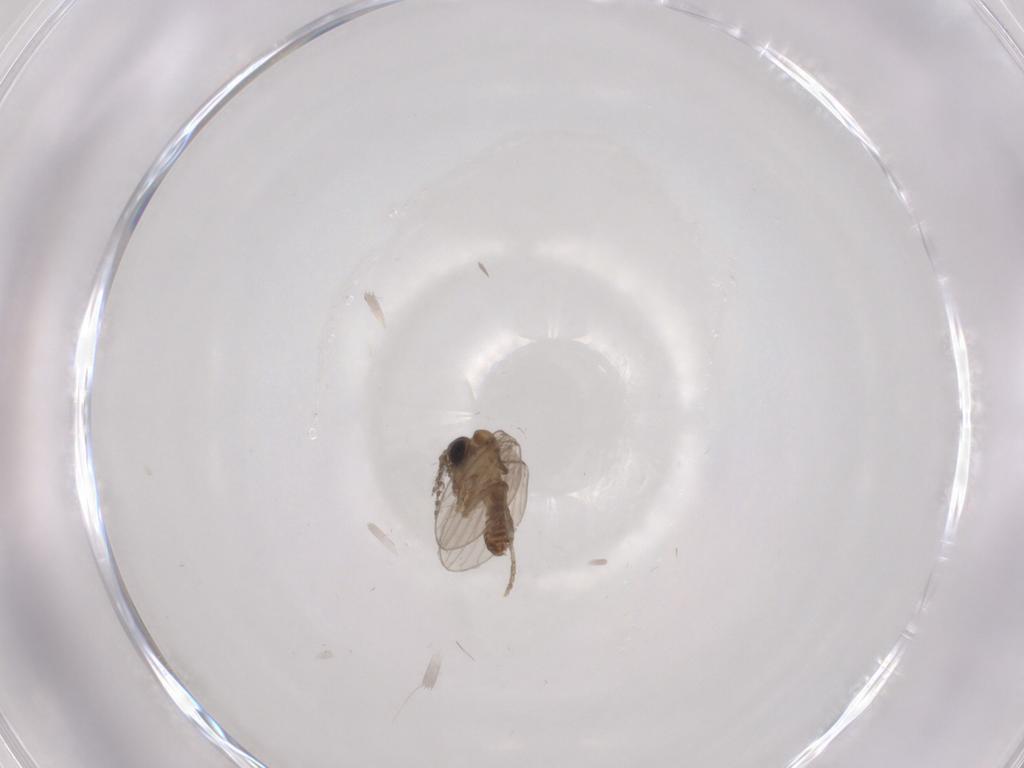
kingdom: Animalia
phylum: Arthropoda
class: Insecta
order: Diptera
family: Psychodidae
